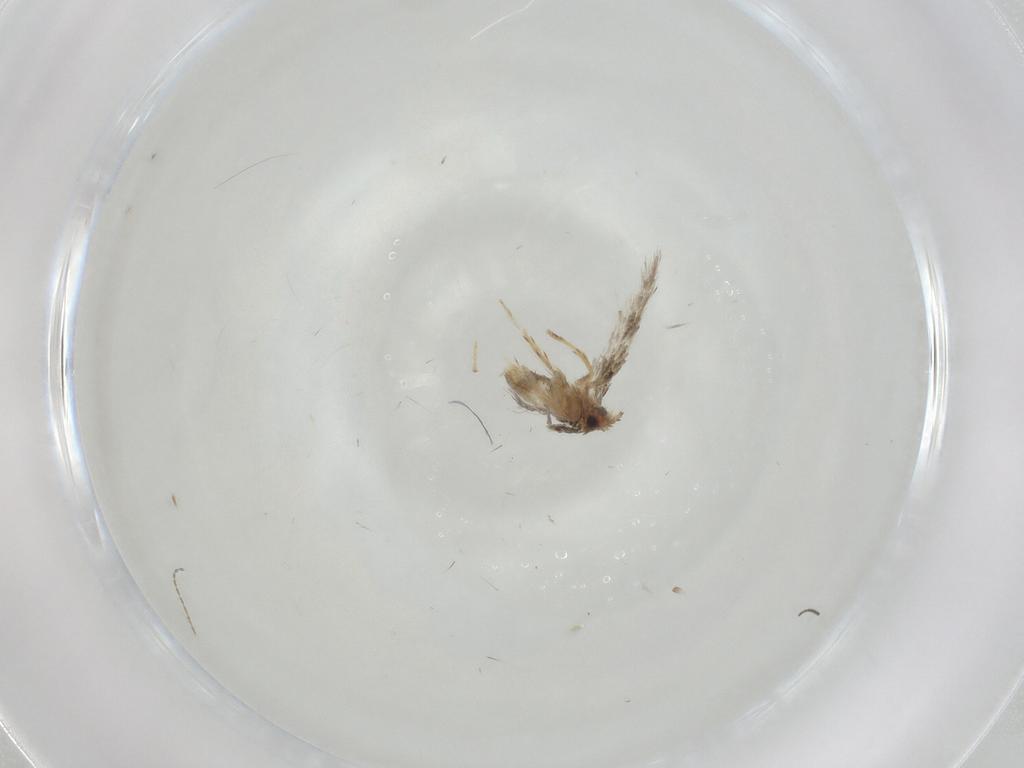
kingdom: Animalia
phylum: Arthropoda
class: Insecta
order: Lepidoptera
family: Nepticulidae
